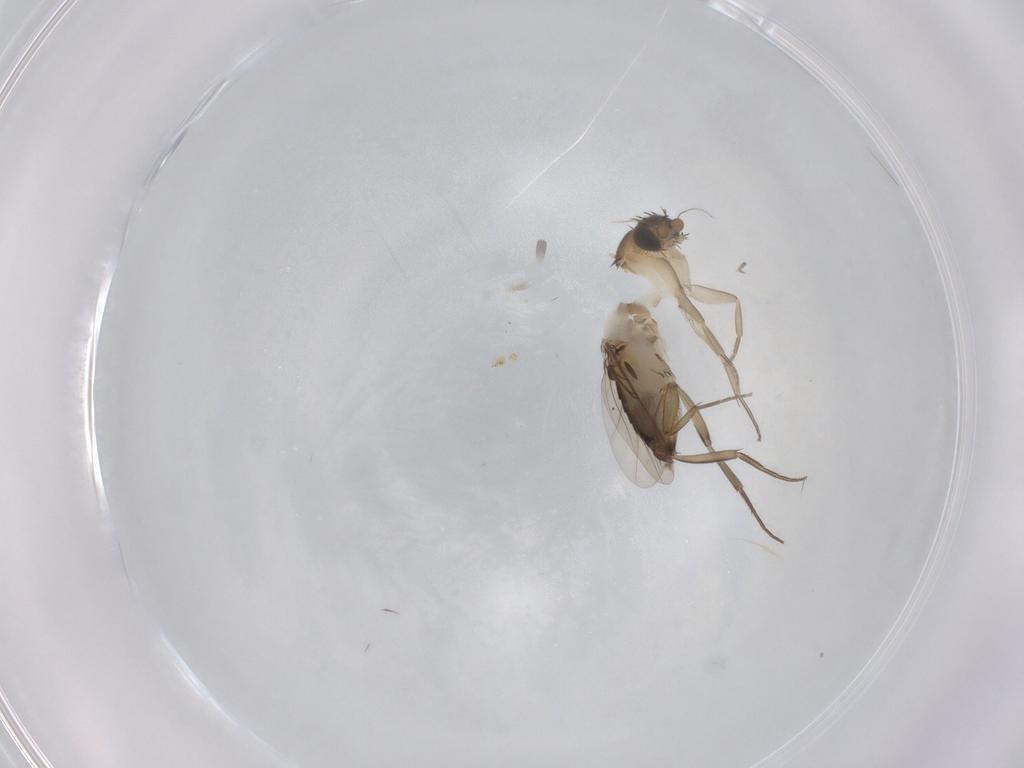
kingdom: Animalia
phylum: Arthropoda
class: Insecta
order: Diptera
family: Phoridae
